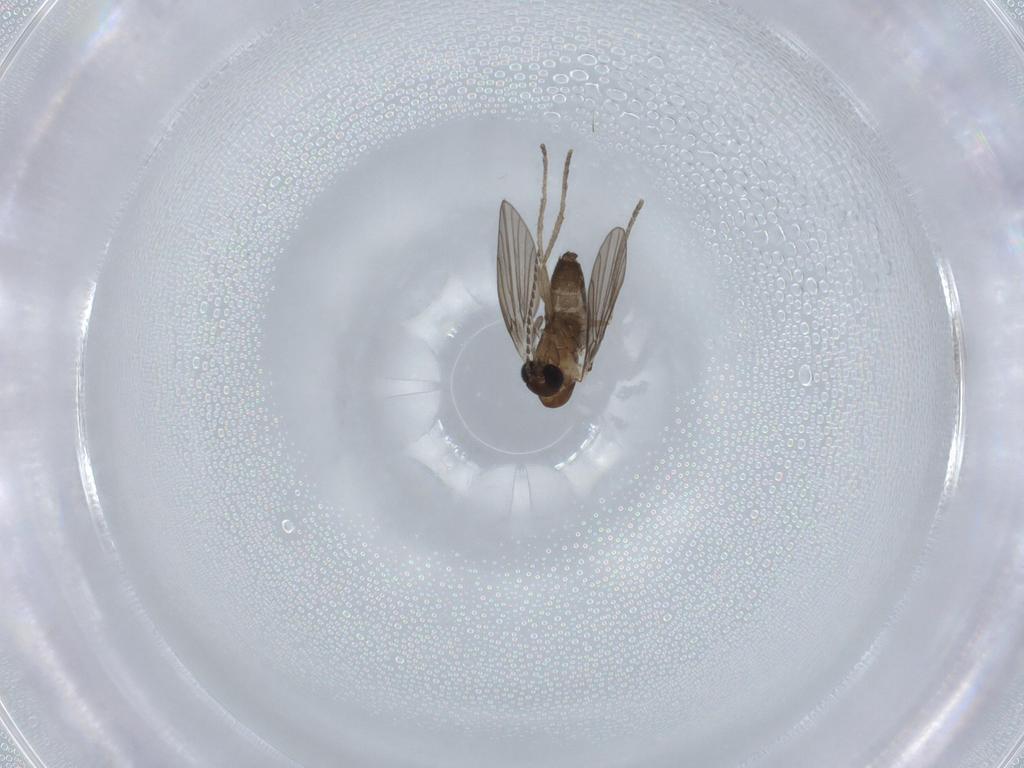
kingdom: Animalia
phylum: Arthropoda
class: Insecta
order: Diptera
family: Psychodidae
